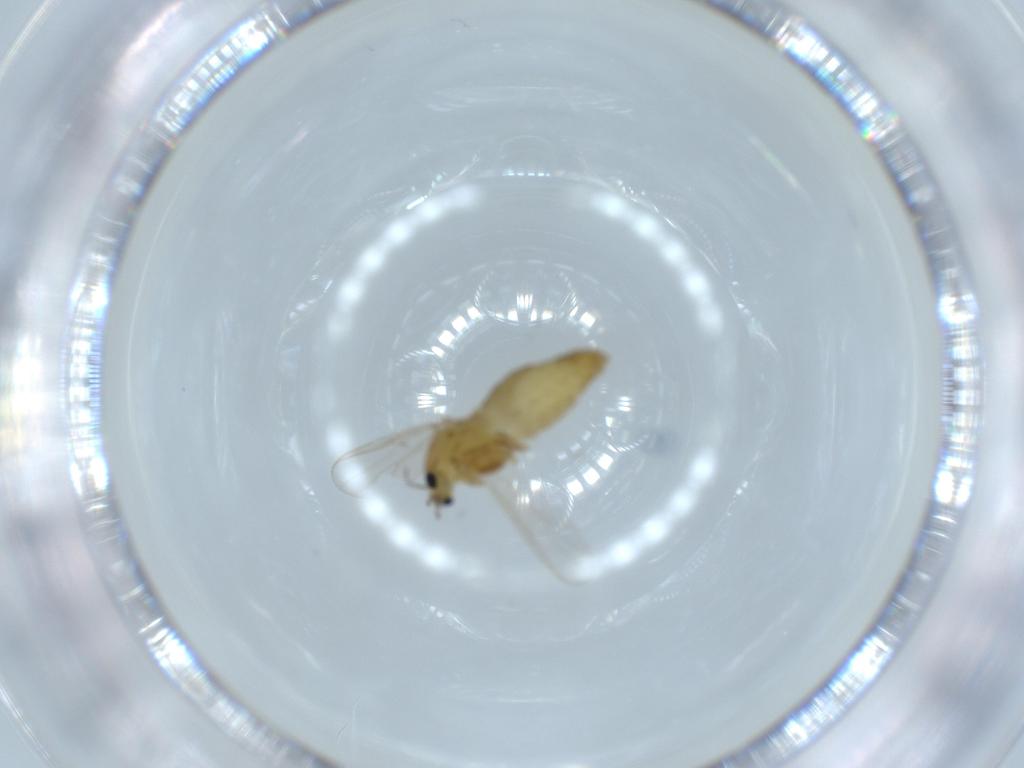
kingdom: Animalia
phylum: Arthropoda
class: Insecta
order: Diptera
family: Chironomidae
